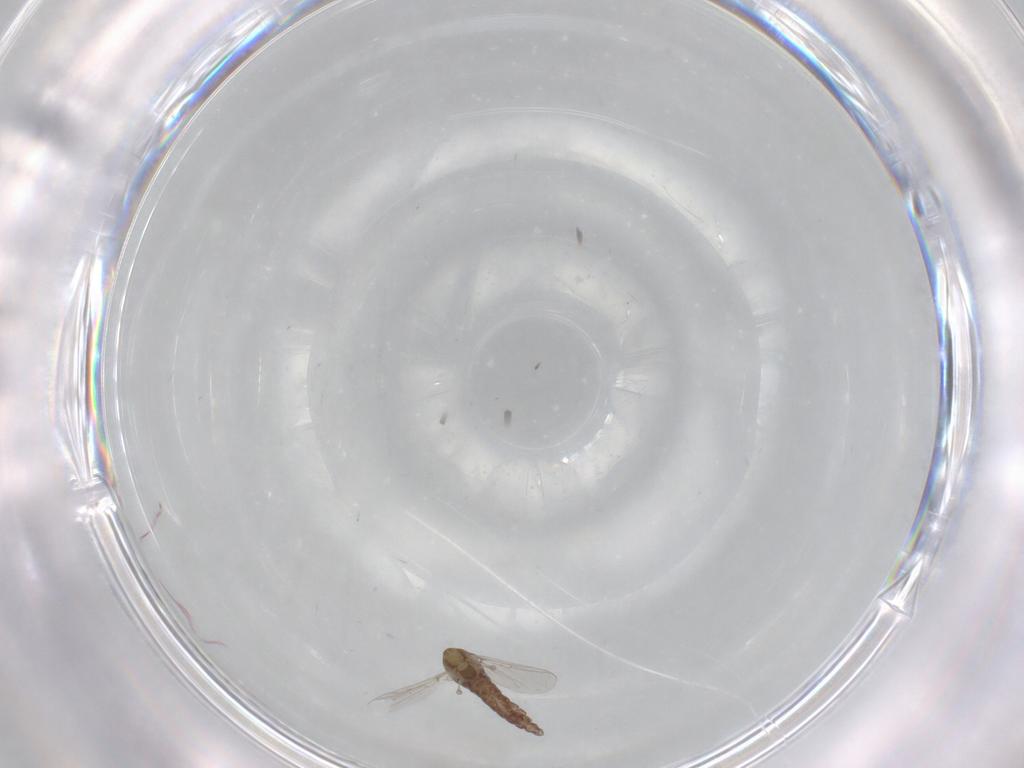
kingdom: Animalia
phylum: Arthropoda
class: Insecta
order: Diptera
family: Chironomidae
